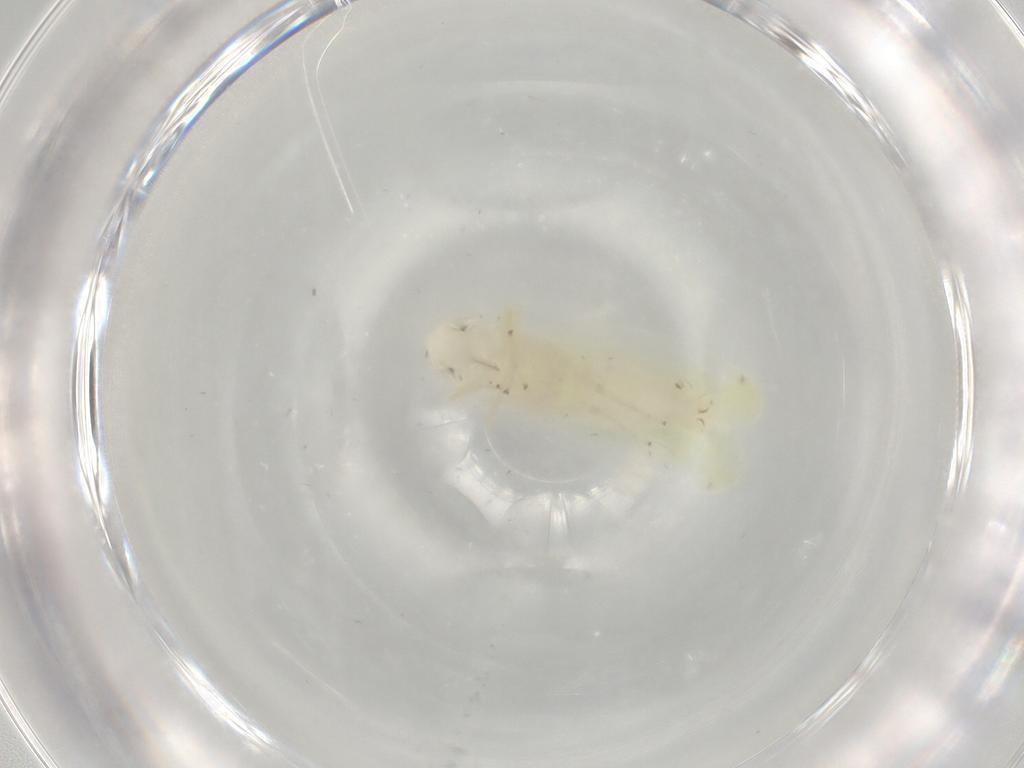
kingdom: Animalia
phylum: Arthropoda
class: Insecta
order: Hemiptera
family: Cicadellidae
